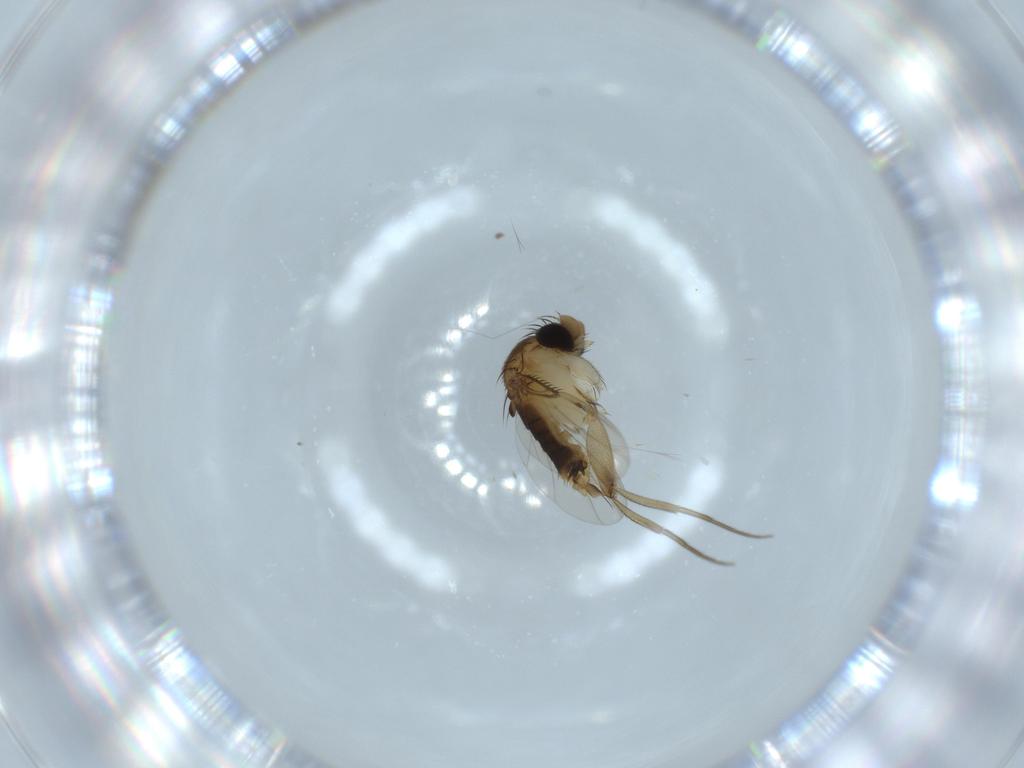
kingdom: Animalia
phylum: Arthropoda
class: Insecta
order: Diptera
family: Phoridae
